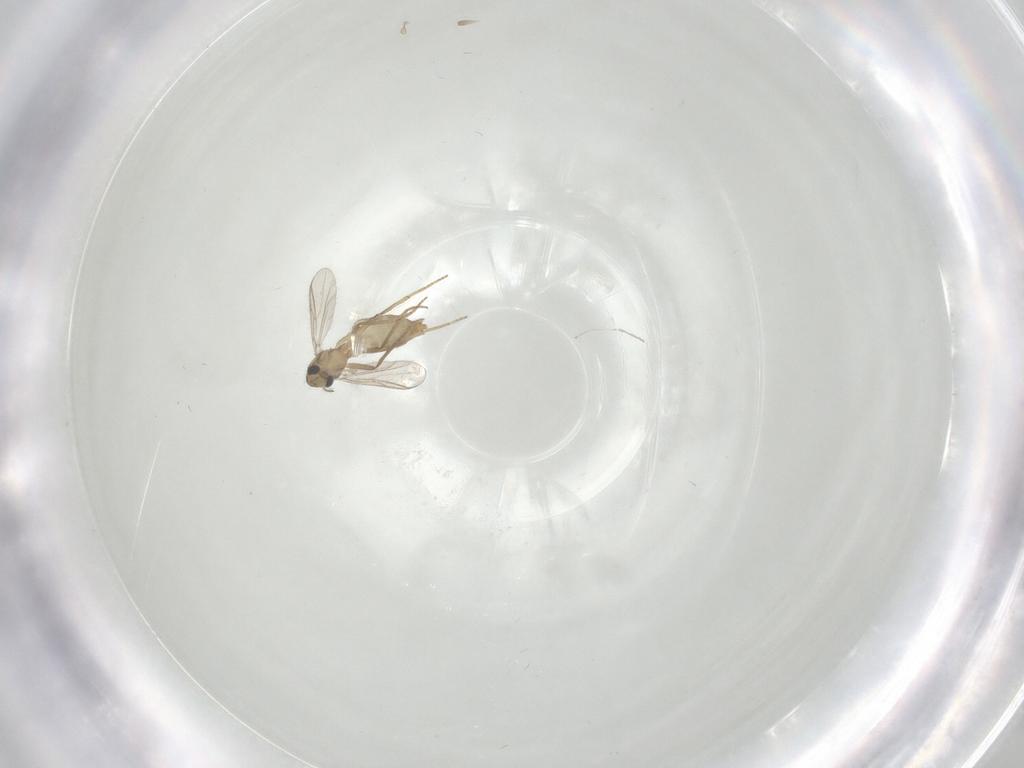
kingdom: Animalia
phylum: Arthropoda
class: Insecta
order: Diptera
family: Chironomidae
